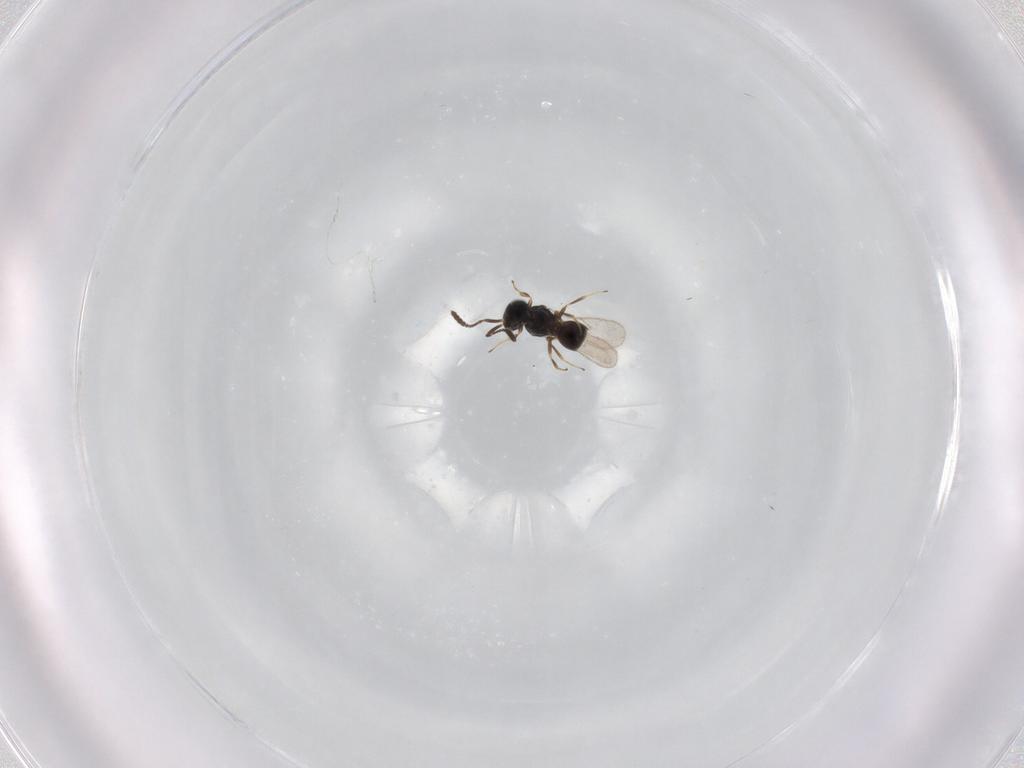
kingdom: Animalia
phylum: Arthropoda
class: Insecta
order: Hymenoptera
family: Scelionidae
